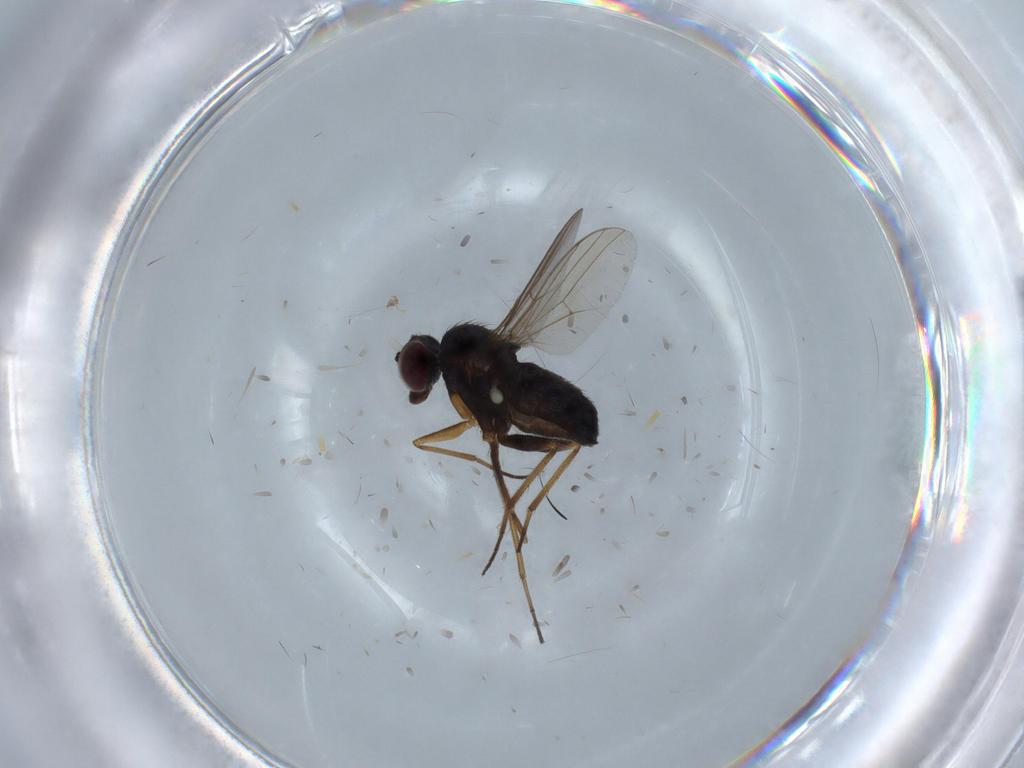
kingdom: Animalia
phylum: Arthropoda
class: Insecta
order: Diptera
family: Dolichopodidae
